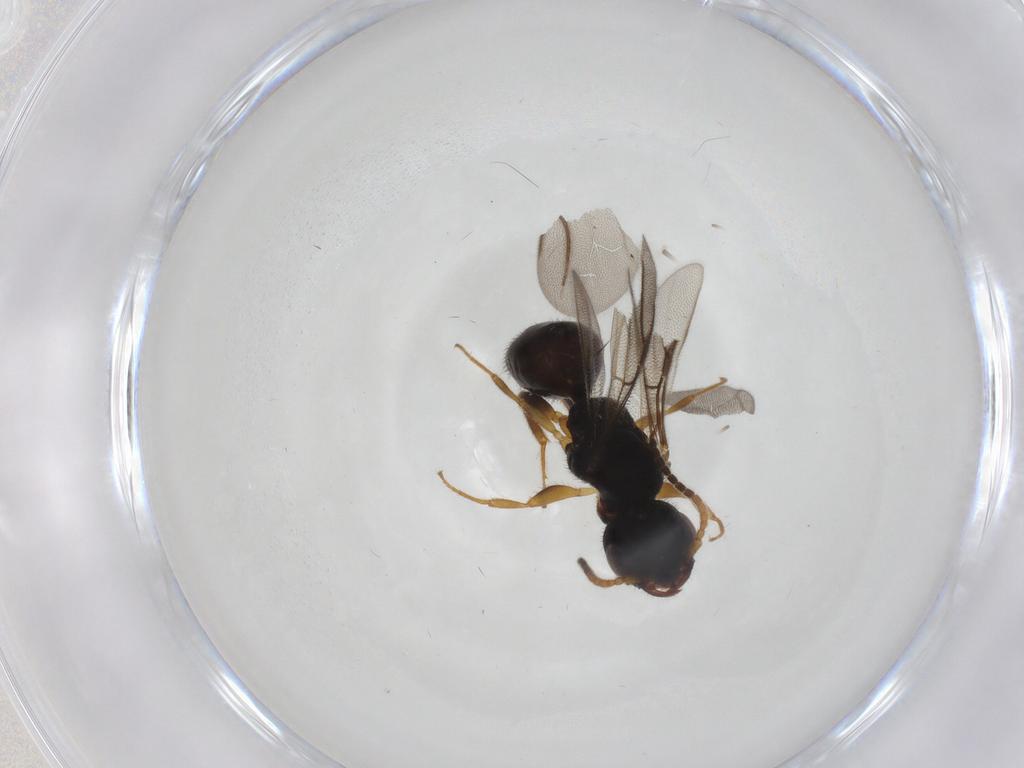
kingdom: Animalia
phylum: Arthropoda
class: Insecta
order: Hymenoptera
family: Bethylidae
